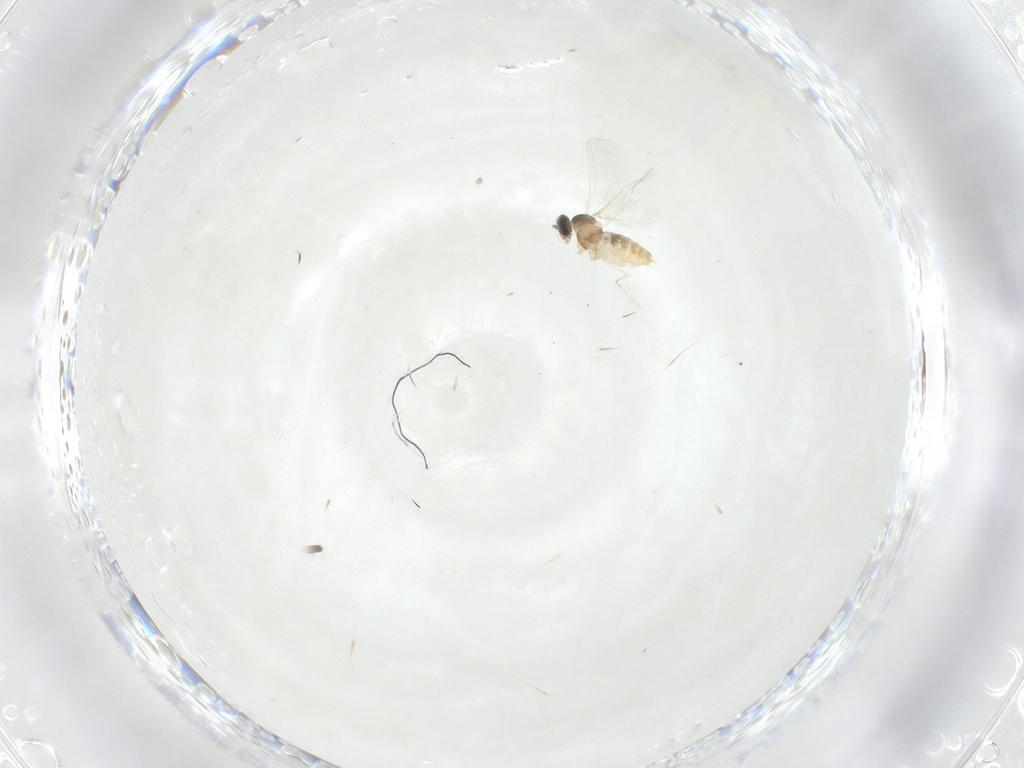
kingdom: Animalia
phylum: Arthropoda
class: Insecta
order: Diptera
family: Cecidomyiidae
